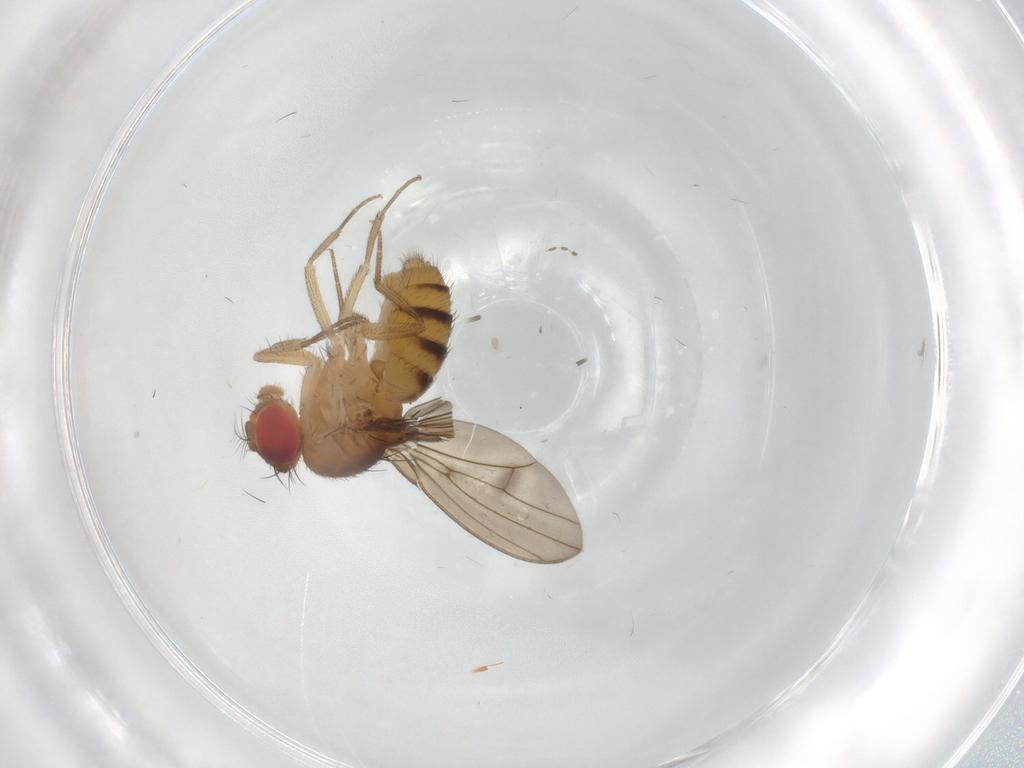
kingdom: Animalia
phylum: Arthropoda
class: Insecta
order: Diptera
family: Drosophilidae
